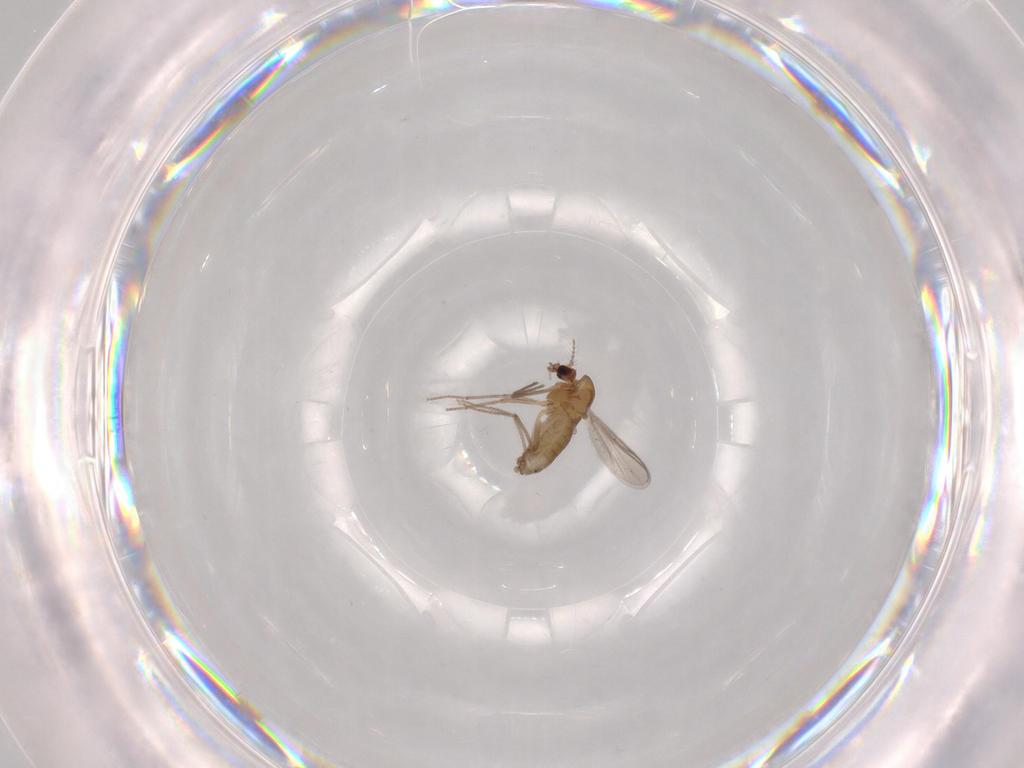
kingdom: Animalia
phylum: Arthropoda
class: Insecta
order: Diptera
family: Chironomidae
